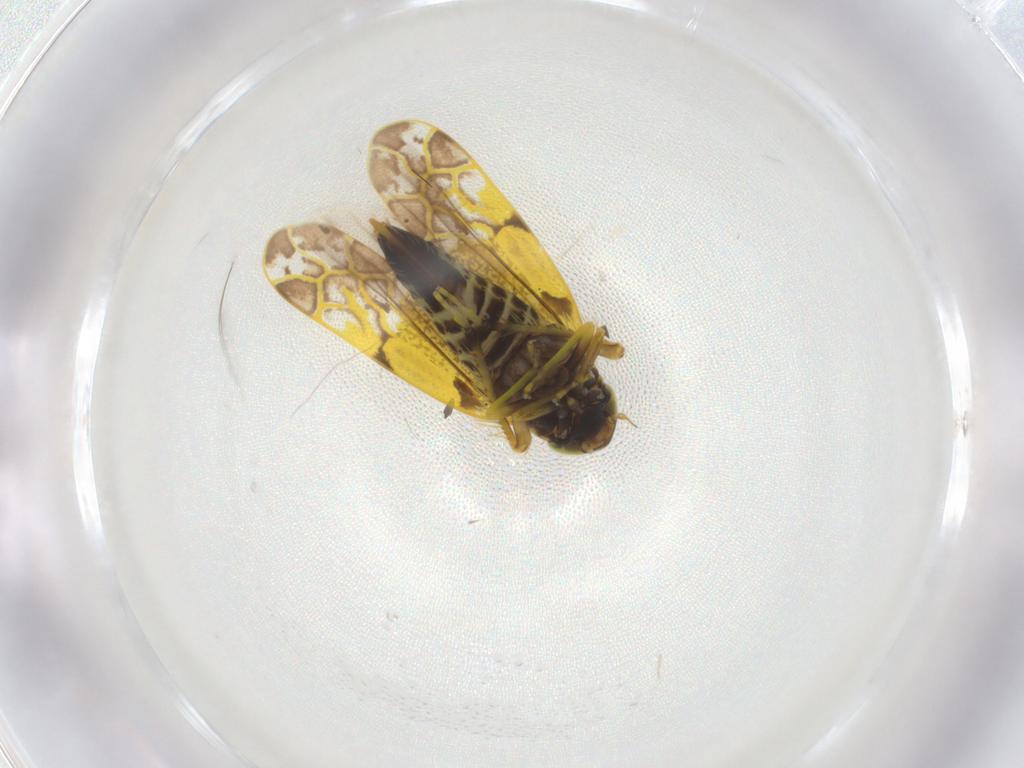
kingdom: Animalia
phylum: Arthropoda
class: Insecta
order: Hemiptera
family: Cicadellidae
